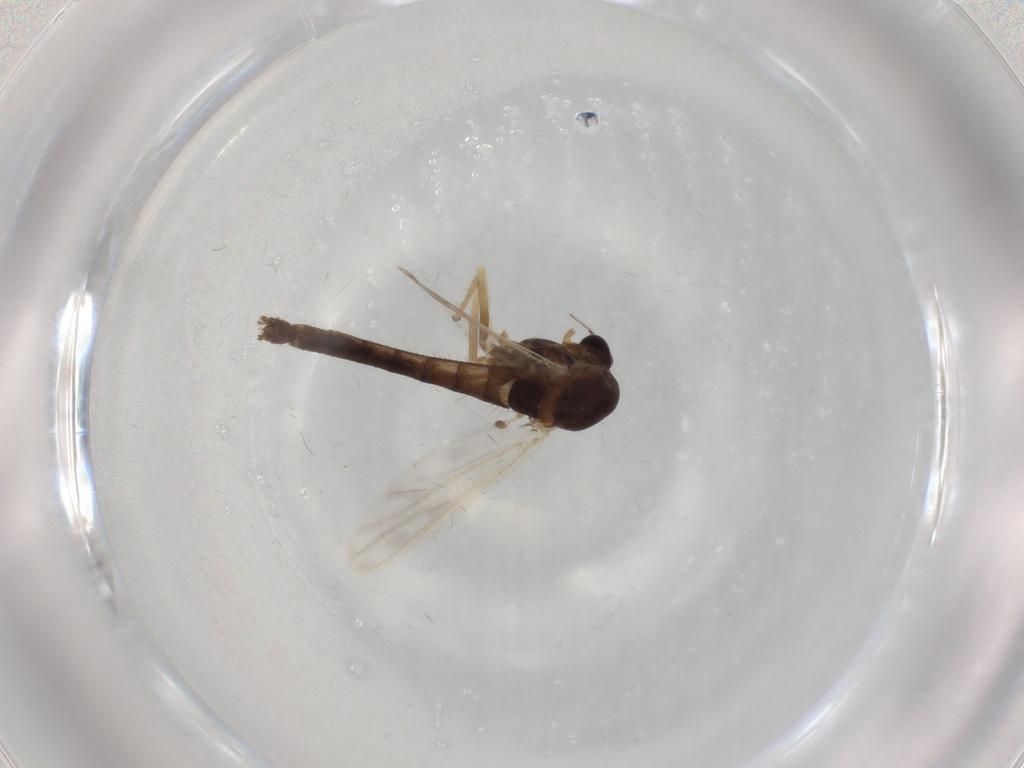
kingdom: Animalia
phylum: Arthropoda
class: Insecta
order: Diptera
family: Chironomidae
